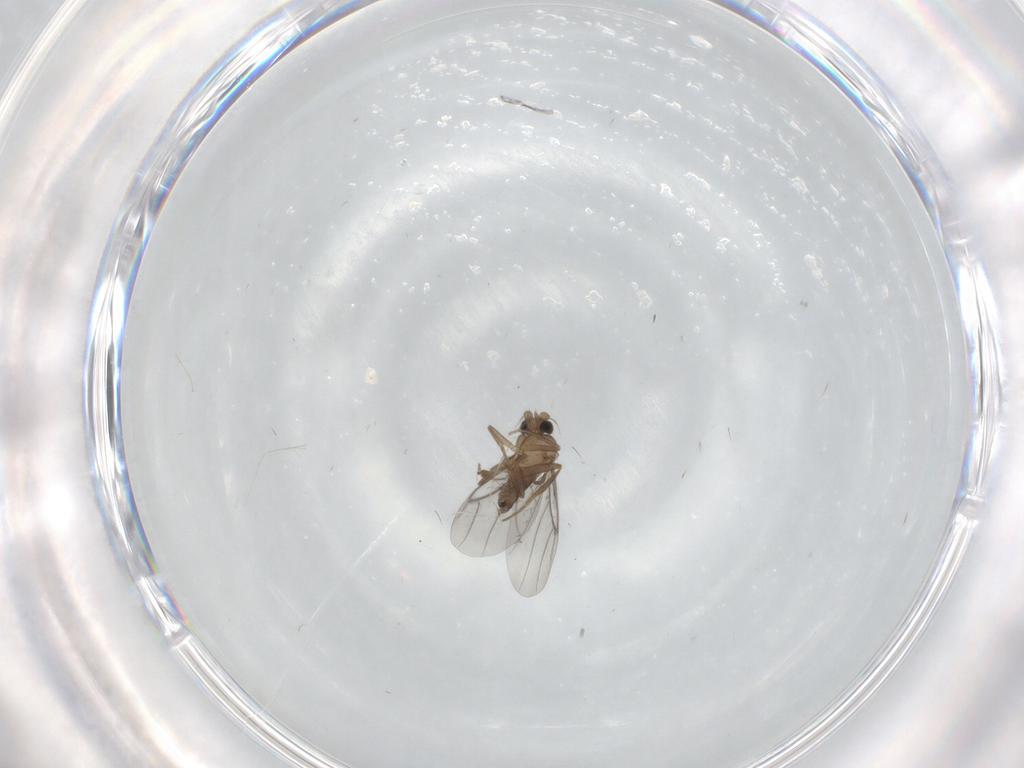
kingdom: Animalia
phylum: Arthropoda
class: Insecta
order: Diptera
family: Cecidomyiidae
